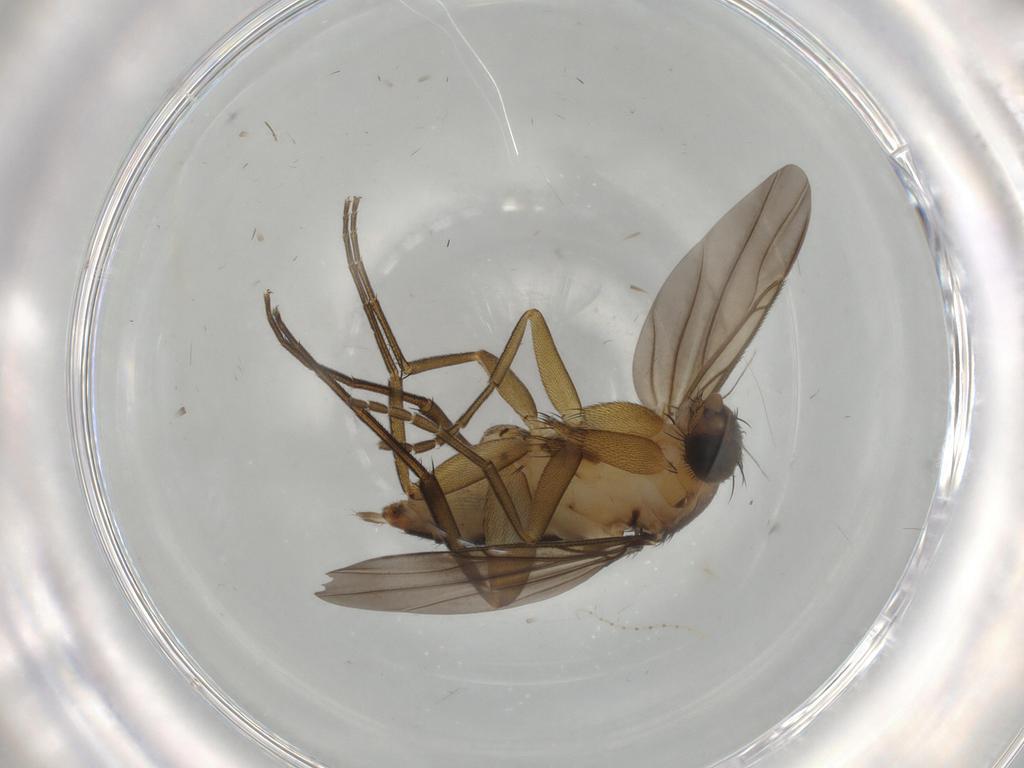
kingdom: Animalia
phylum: Arthropoda
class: Insecta
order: Diptera
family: Phoridae
